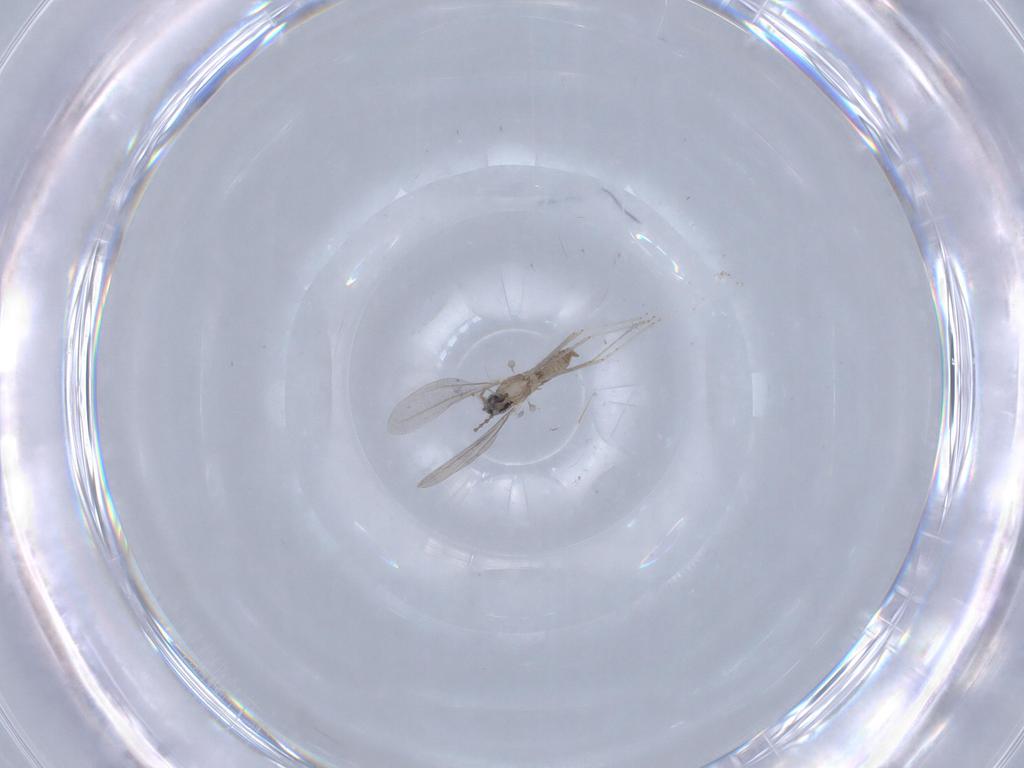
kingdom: Animalia
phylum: Arthropoda
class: Insecta
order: Diptera
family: Cecidomyiidae
